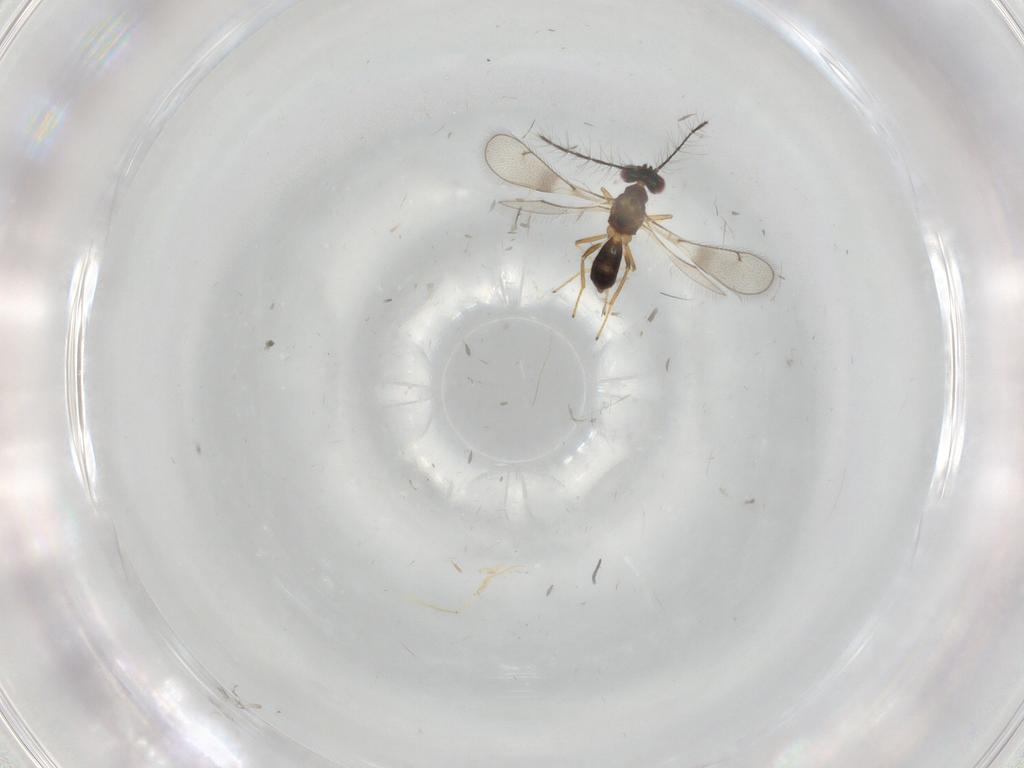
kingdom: Animalia
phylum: Arthropoda
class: Insecta
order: Hymenoptera
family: Eulophidae
